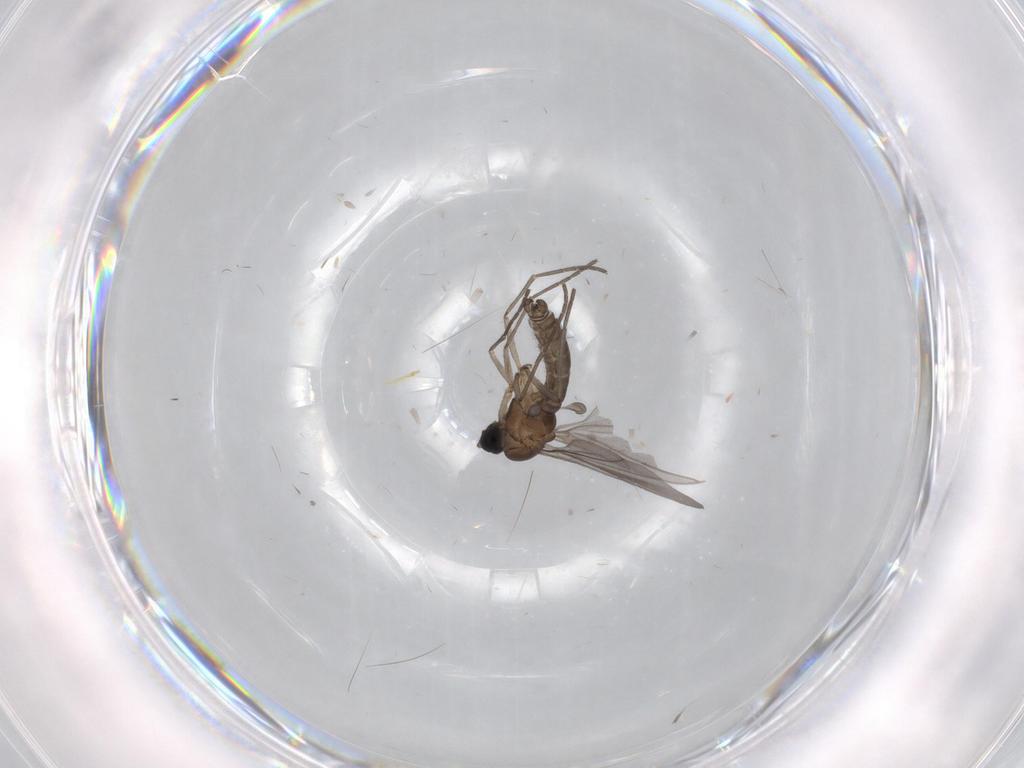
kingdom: Animalia
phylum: Arthropoda
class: Insecta
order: Diptera
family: Sciaridae
